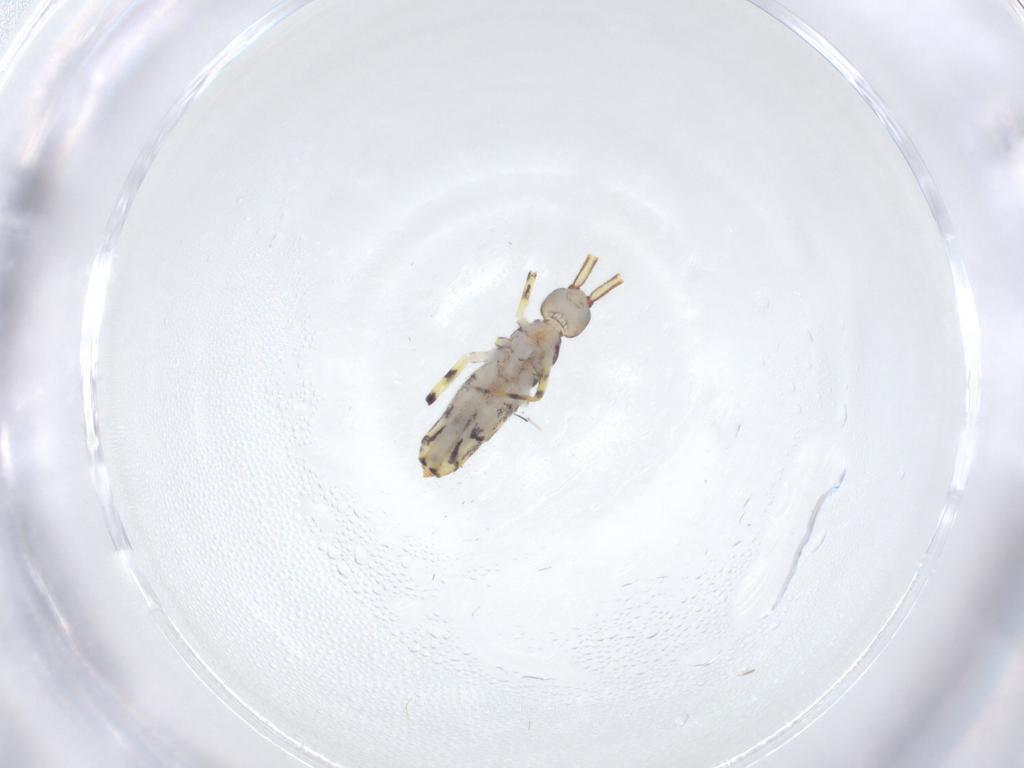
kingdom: Animalia
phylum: Arthropoda
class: Collembola
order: Entomobryomorpha
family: Entomobryidae
